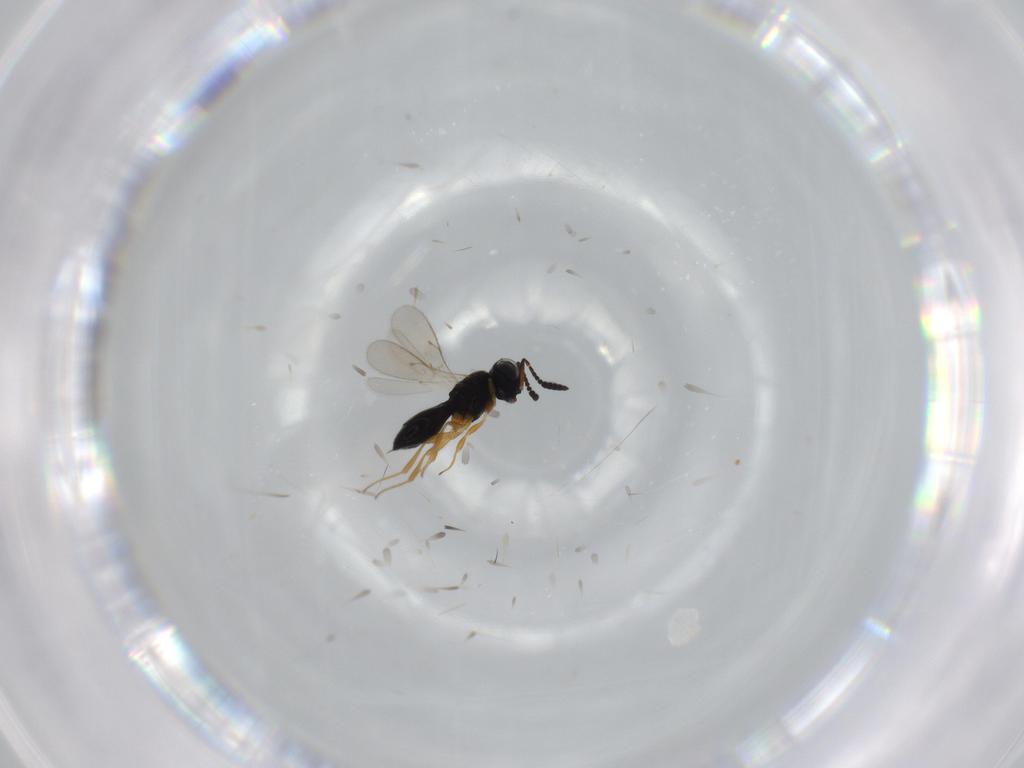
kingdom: Animalia
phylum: Arthropoda
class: Insecta
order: Hymenoptera
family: Scelionidae
